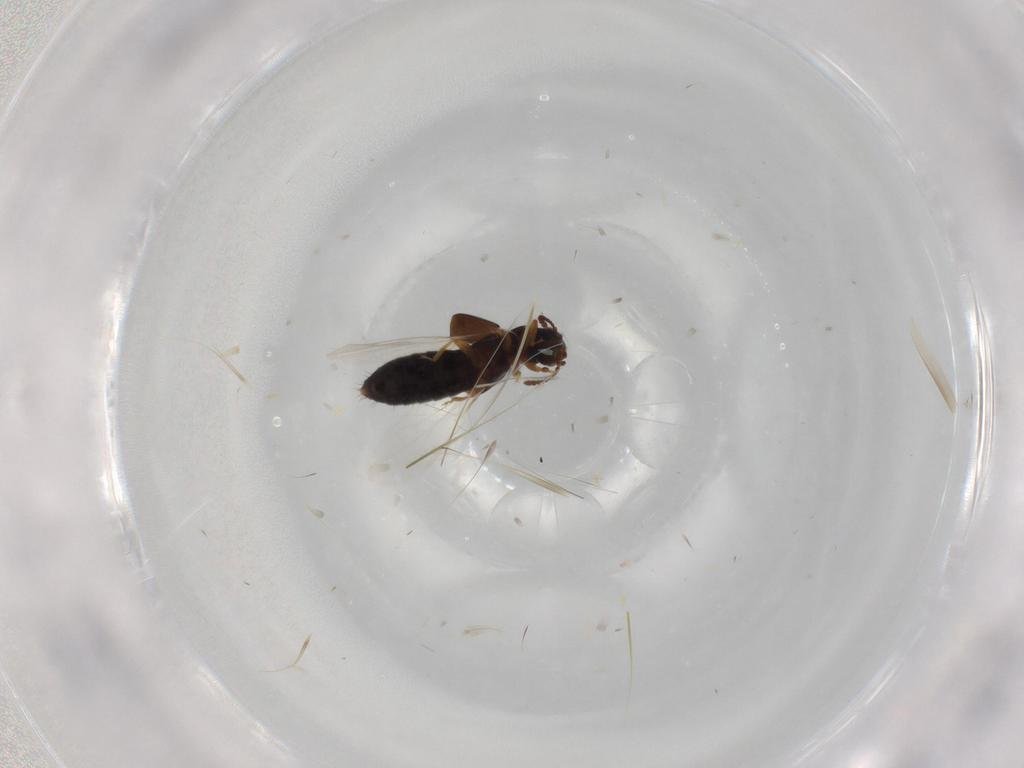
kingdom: Animalia
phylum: Arthropoda
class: Insecta
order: Coleoptera
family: Staphylinidae
